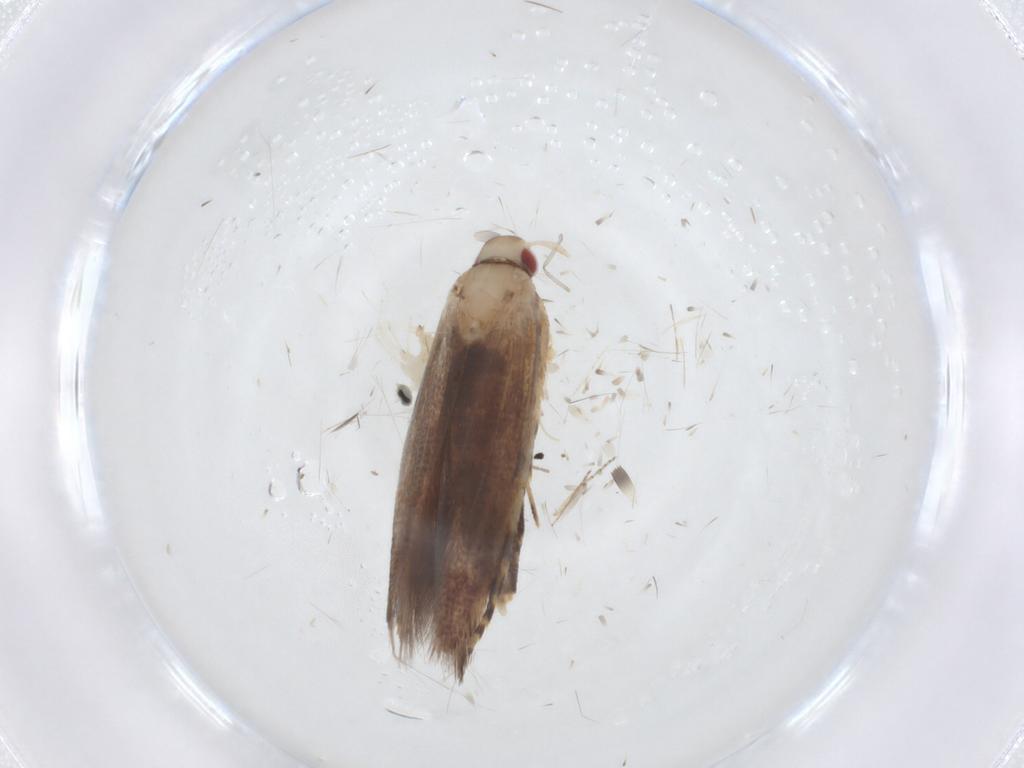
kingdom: Animalia
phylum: Arthropoda
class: Insecta
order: Lepidoptera
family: Cosmopterigidae
